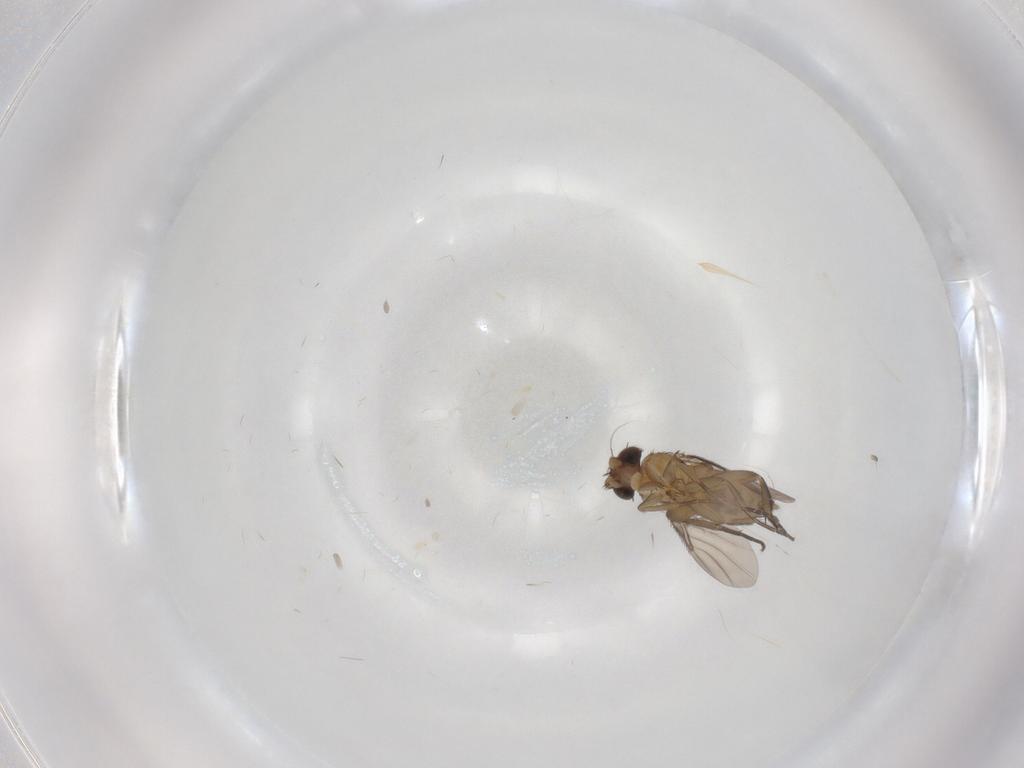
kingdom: Animalia
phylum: Arthropoda
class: Insecta
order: Diptera
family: Phoridae
